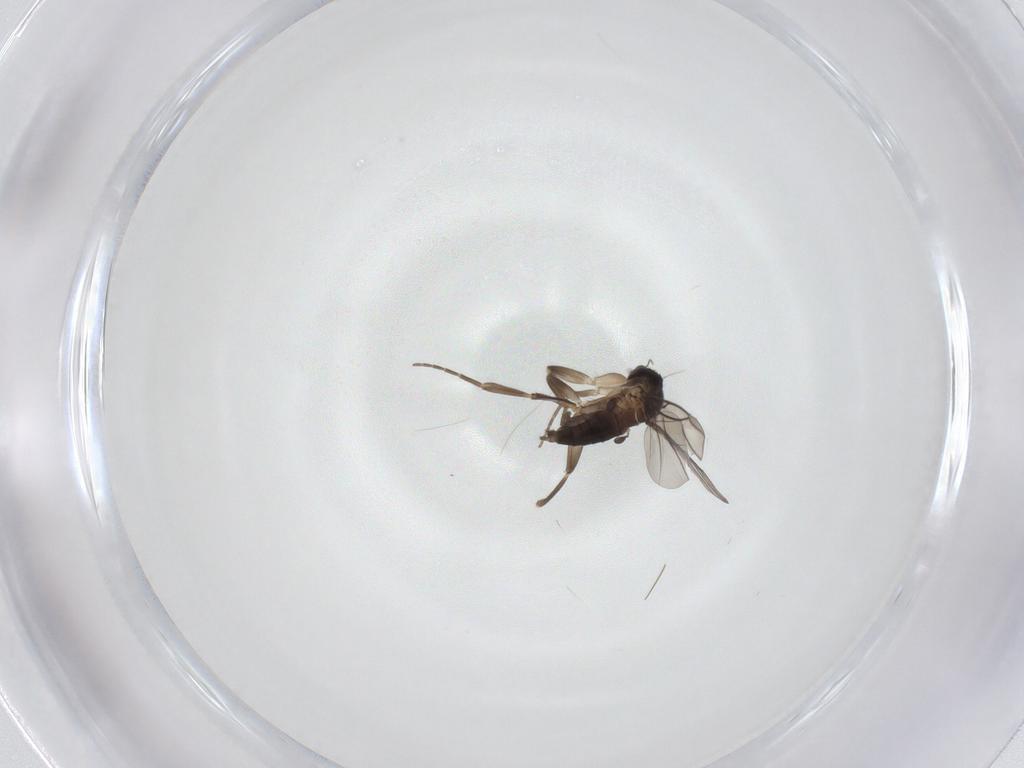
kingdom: Animalia
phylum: Arthropoda
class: Insecta
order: Diptera
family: Phoridae
